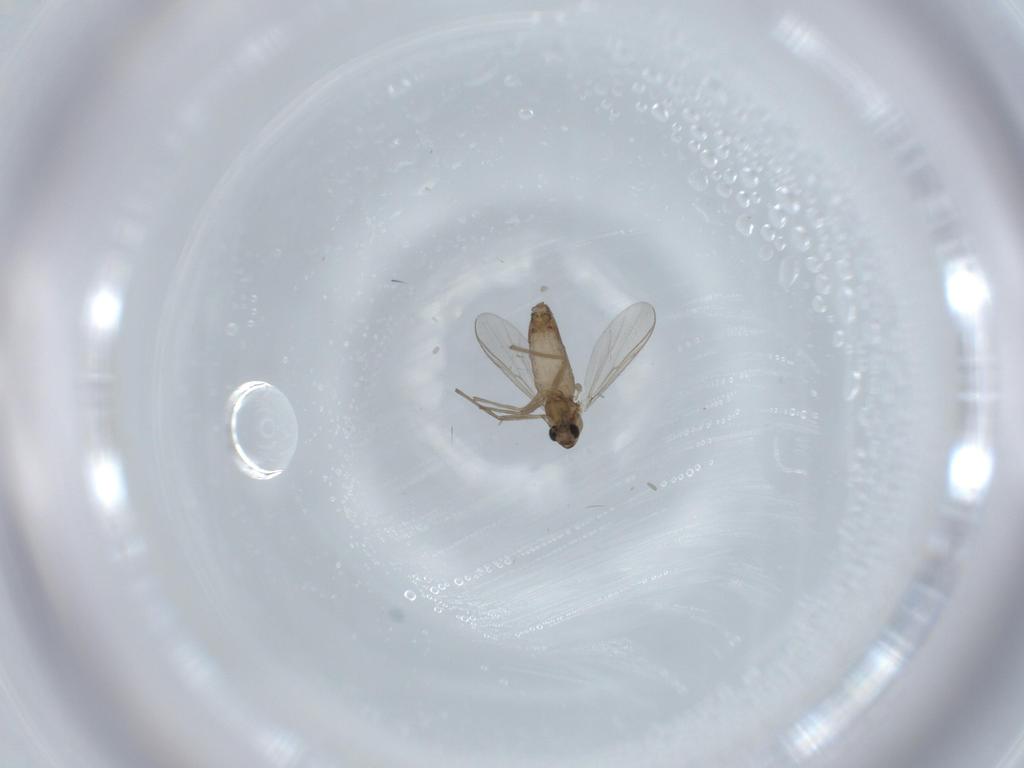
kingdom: Animalia
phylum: Arthropoda
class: Insecta
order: Diptera
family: Chironomidae
